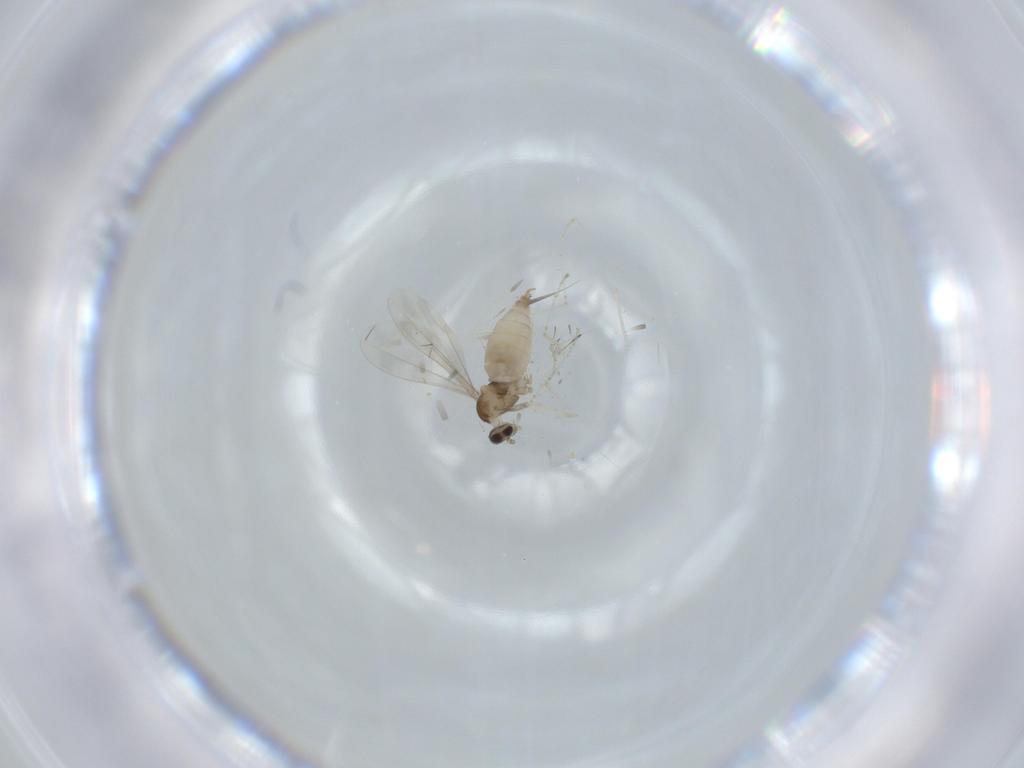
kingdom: Animalia
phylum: Arthropoda
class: Insecta
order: Diptera
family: Cecidomyiidae
